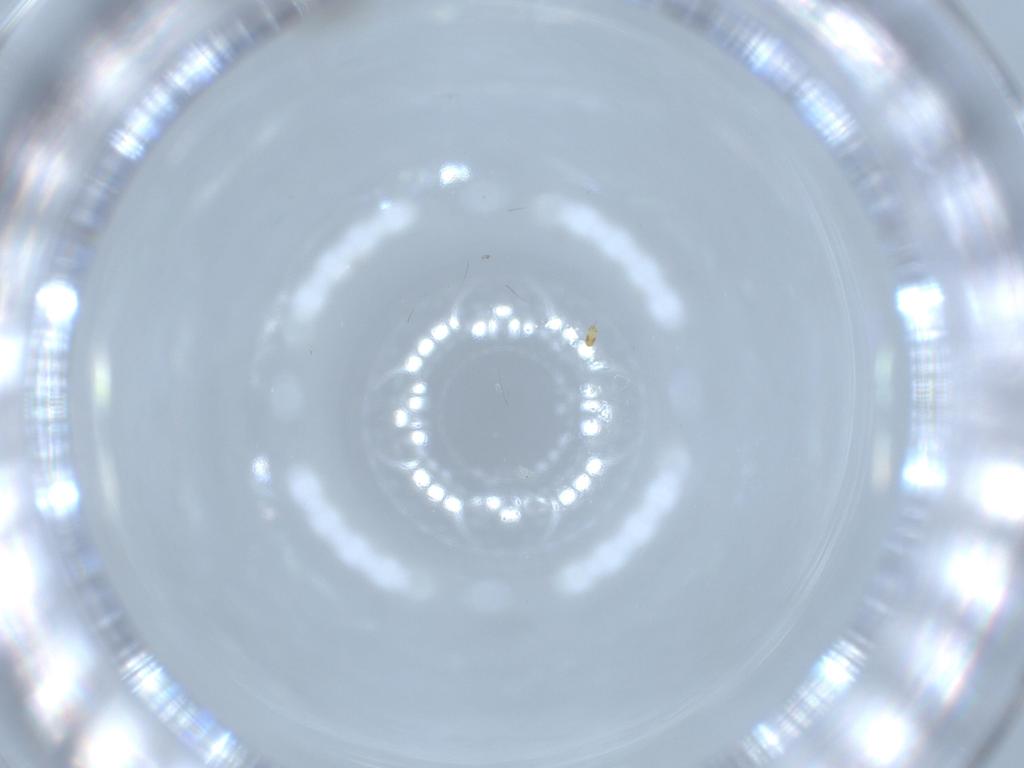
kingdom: Animalia
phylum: Arthropoda
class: Insecta
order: Diptera
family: Cecidomyiidae
